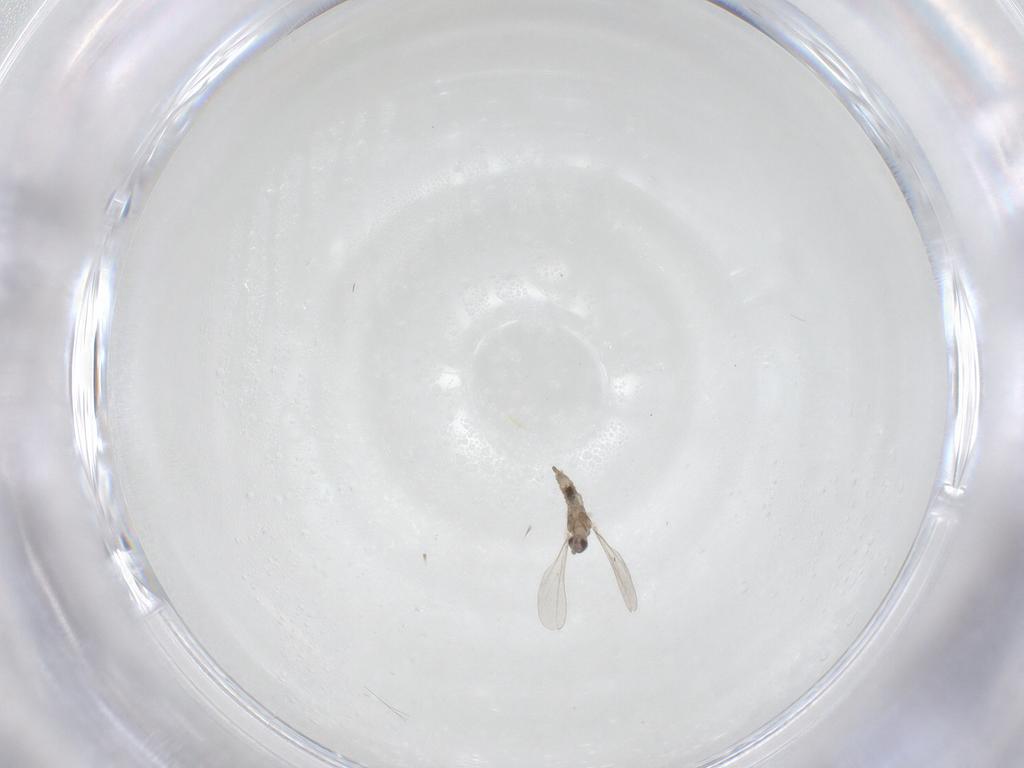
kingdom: Animalia
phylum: Arthropoda
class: Insecta
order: Diptera
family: Cecidomyiidae
